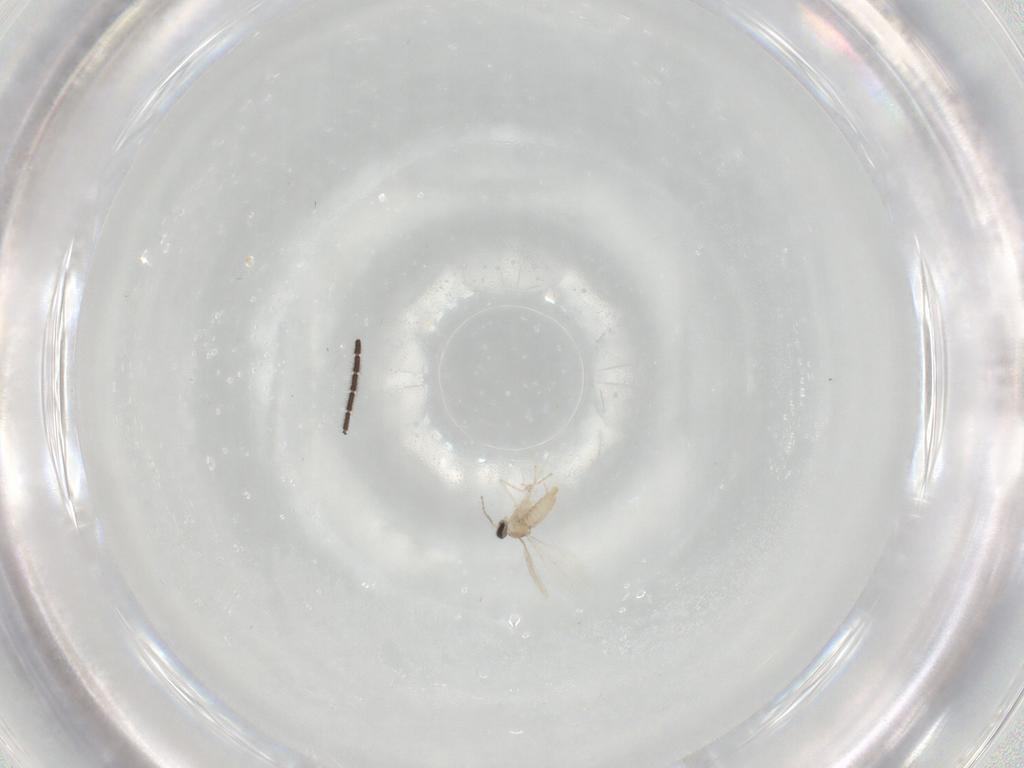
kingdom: Animalia
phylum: Arthropoda
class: Insecta
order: Diptera
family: Cecidomyiidae
